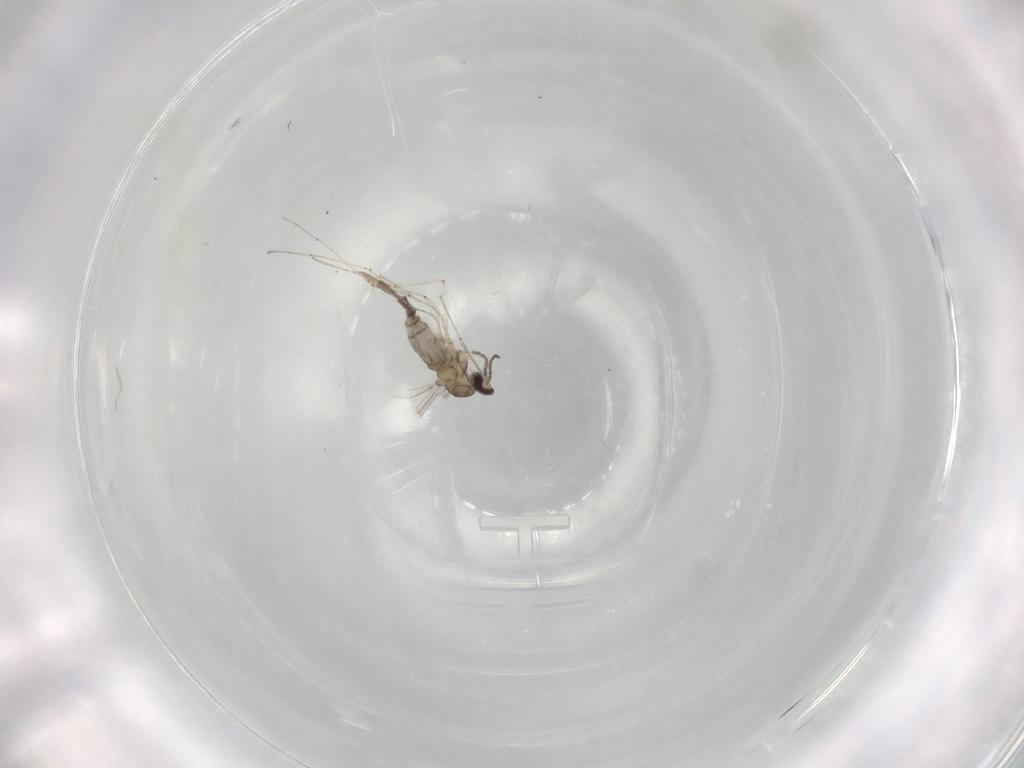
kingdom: Animalia
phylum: Arthropoda
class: Insecta
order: Diptera
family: Cecidomyiidae
